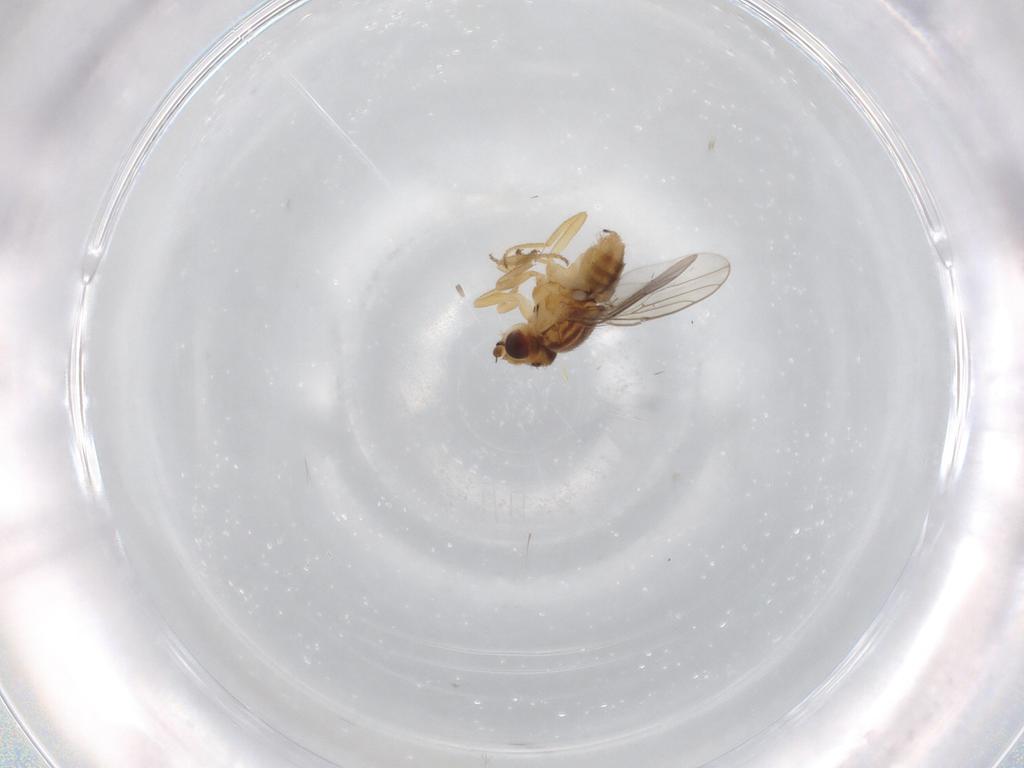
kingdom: Animalia
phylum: Arthropoda
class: Insecta
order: Diptera
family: Chloropidae
